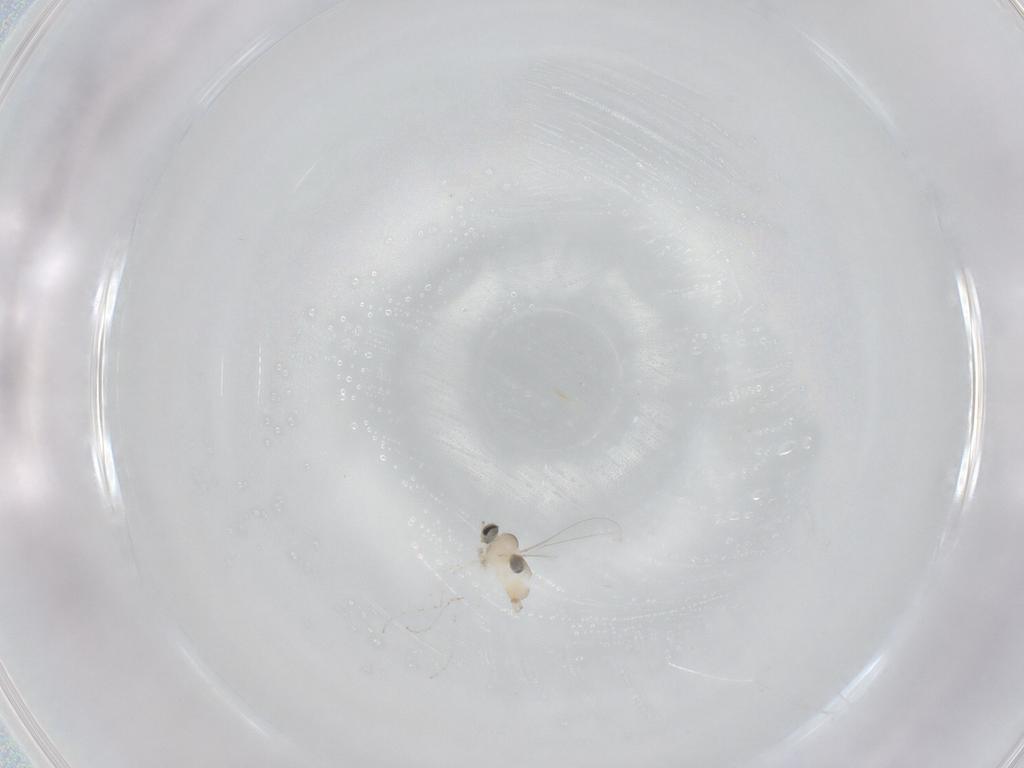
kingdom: Animalia
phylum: Arthropoda
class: Insecta
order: Diptera
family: Cecidomyiidae
